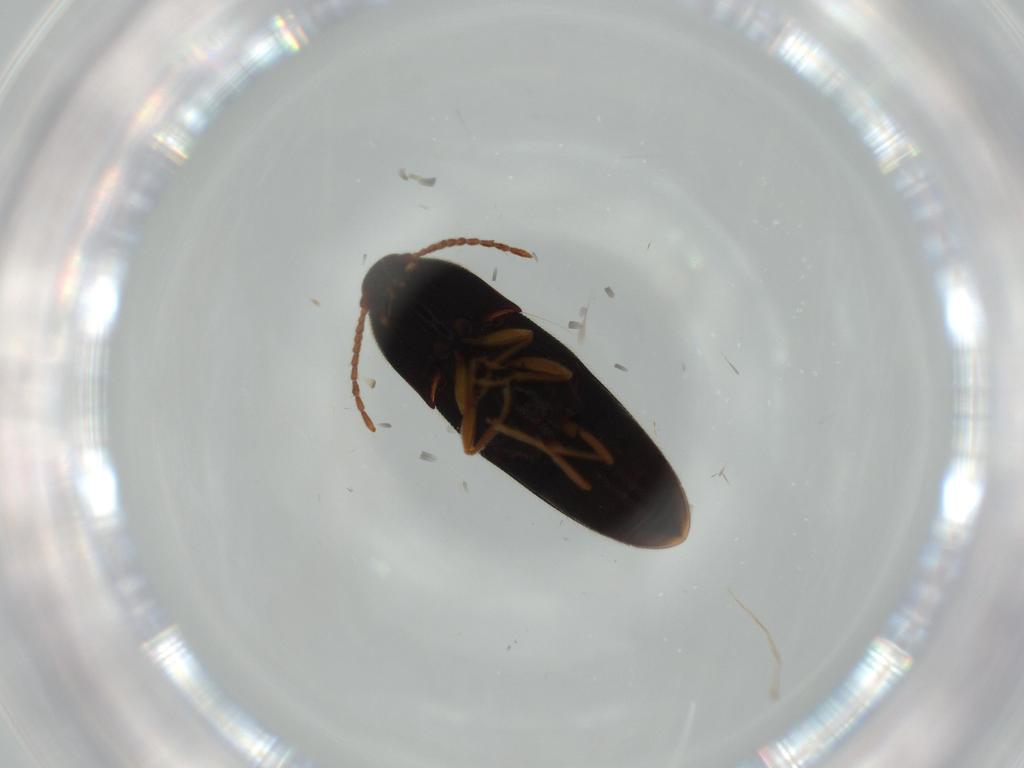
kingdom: Animalia
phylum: Arthropoda
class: Insecta
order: Coleoptera
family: Elateridae
